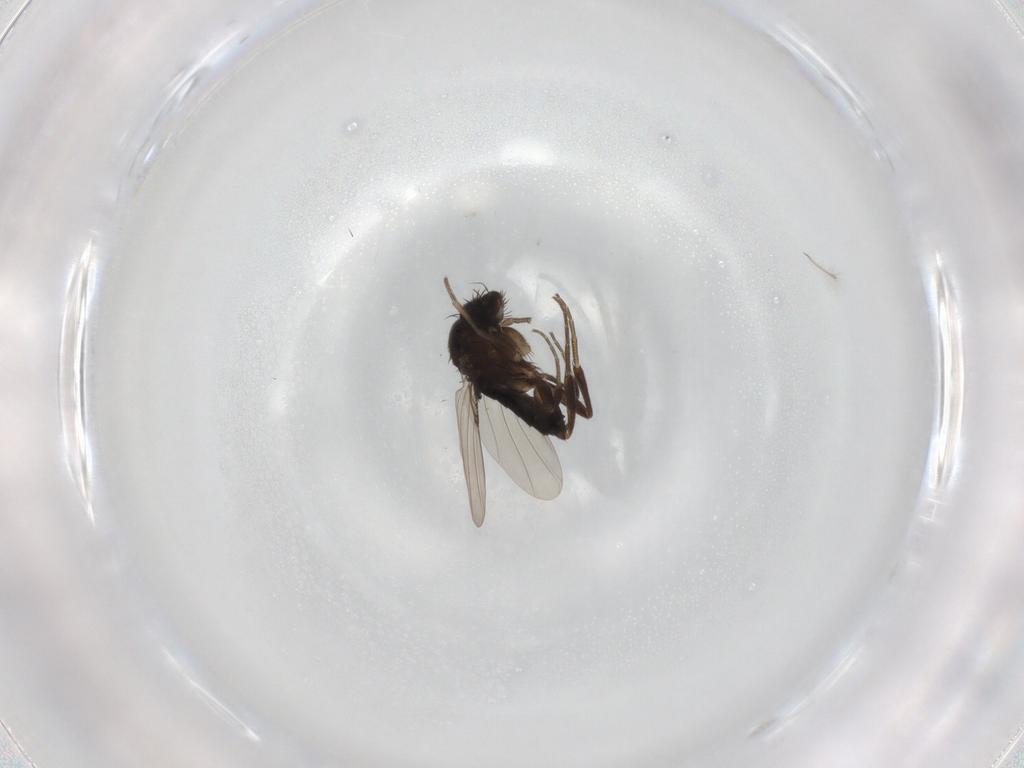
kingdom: Animalia
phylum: Arthropoda
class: Insecta
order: Diptera
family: Phoridae
